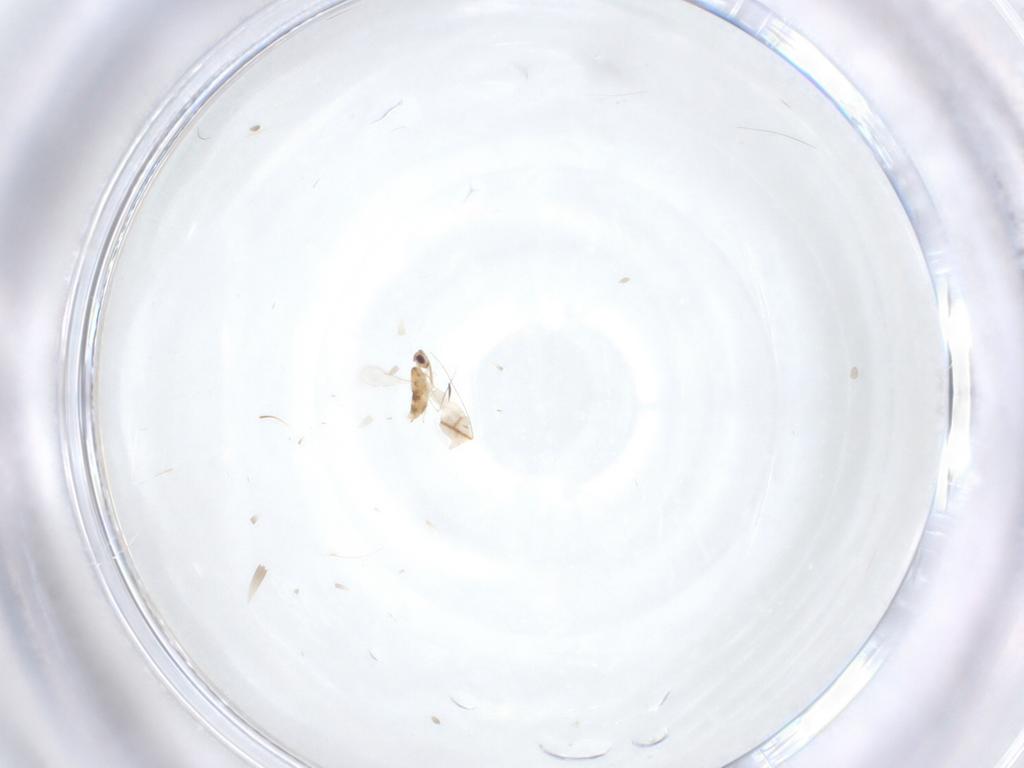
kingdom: Animalia
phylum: Arthropoda
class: Insecta
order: Hymenoptera
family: Aphelinidae
